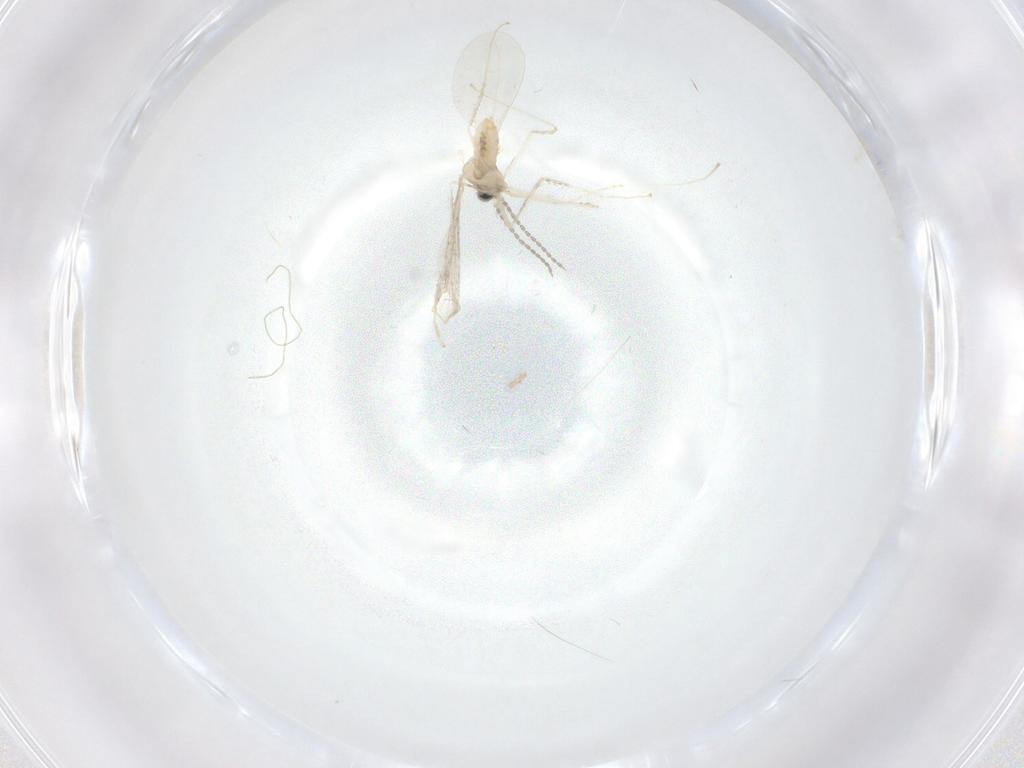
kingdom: Animalia
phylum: Arthropoda
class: Insecta
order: Diptera
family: Cecidomyiidae
